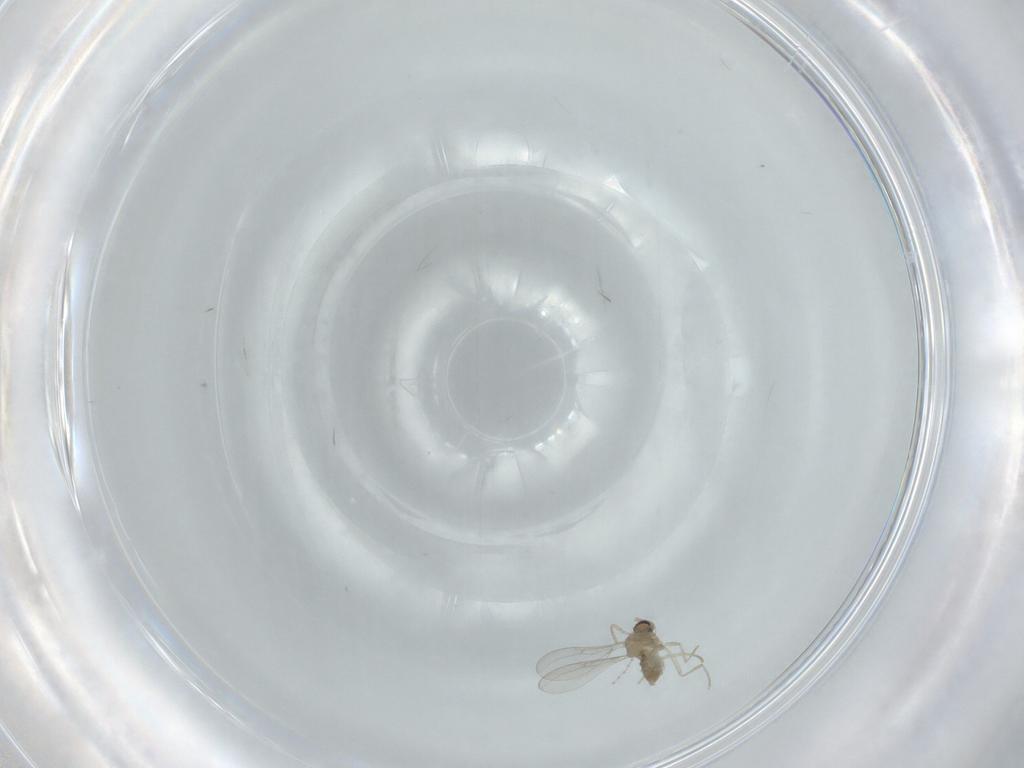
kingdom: Animalia
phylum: Arthropoda
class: Insecta
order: Diptera
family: Cecidomyiidae
